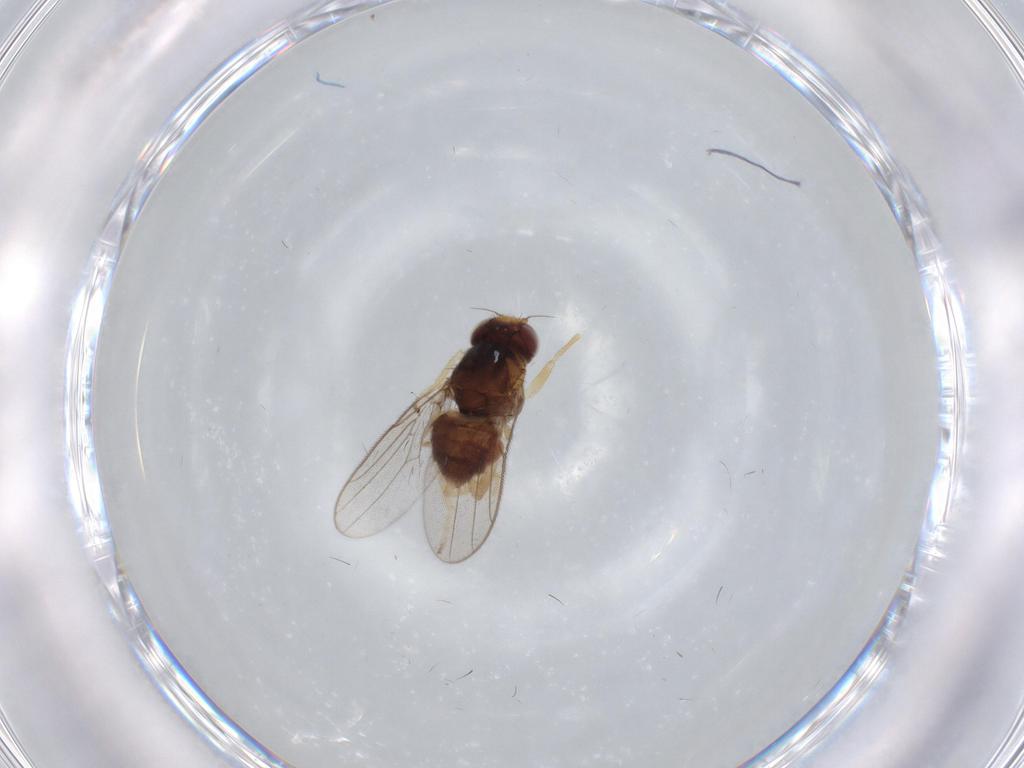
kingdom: Animalia
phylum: Arthropoda
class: Insecta
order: Diptera
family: Chloropidae
